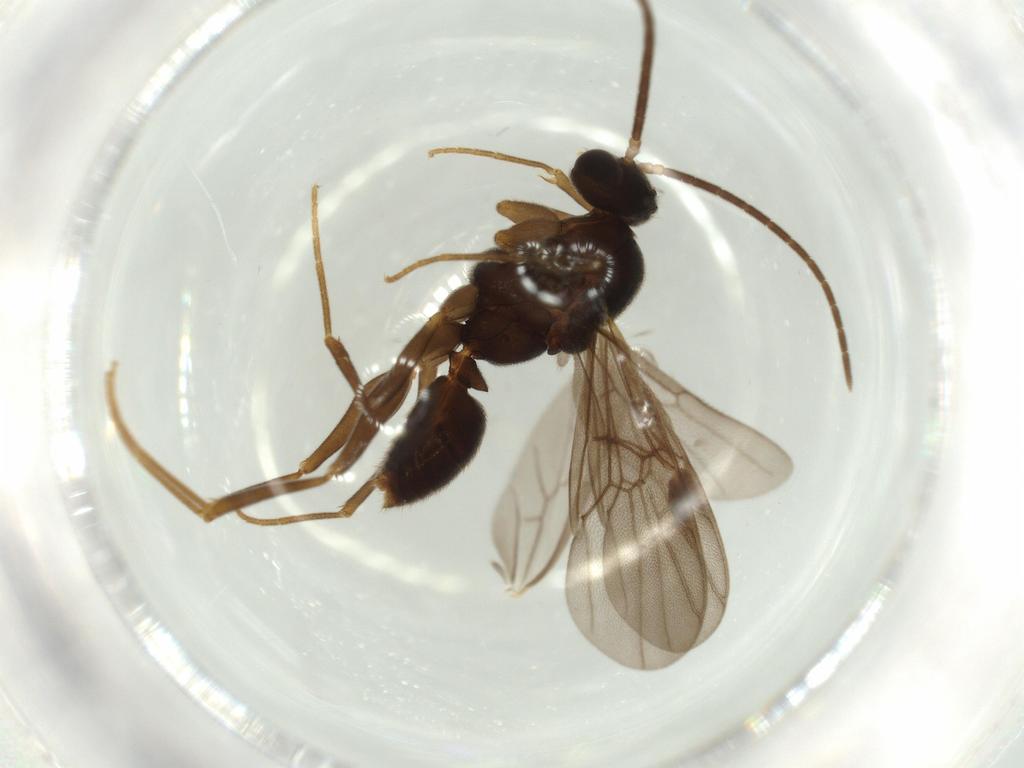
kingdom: Animalia
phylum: Arthropoda
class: Insecta
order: Hymenoptera
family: Formicidae
